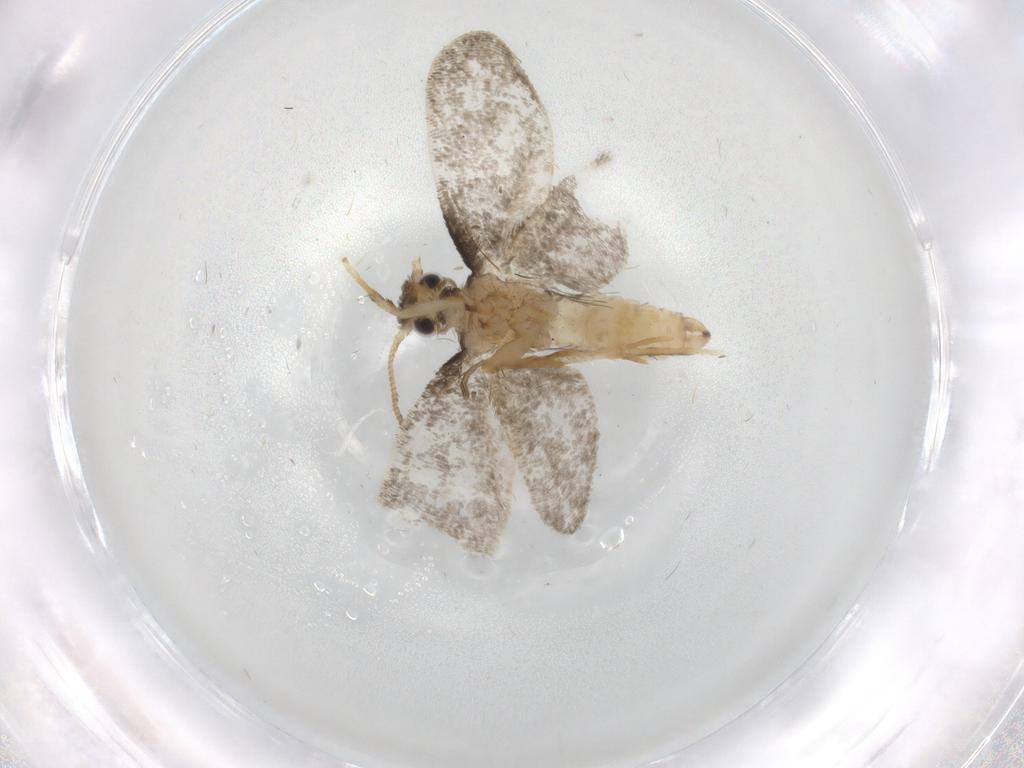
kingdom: Animalia
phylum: Arthropoda
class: Insecta
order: Lepidoptera
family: Psychidae
